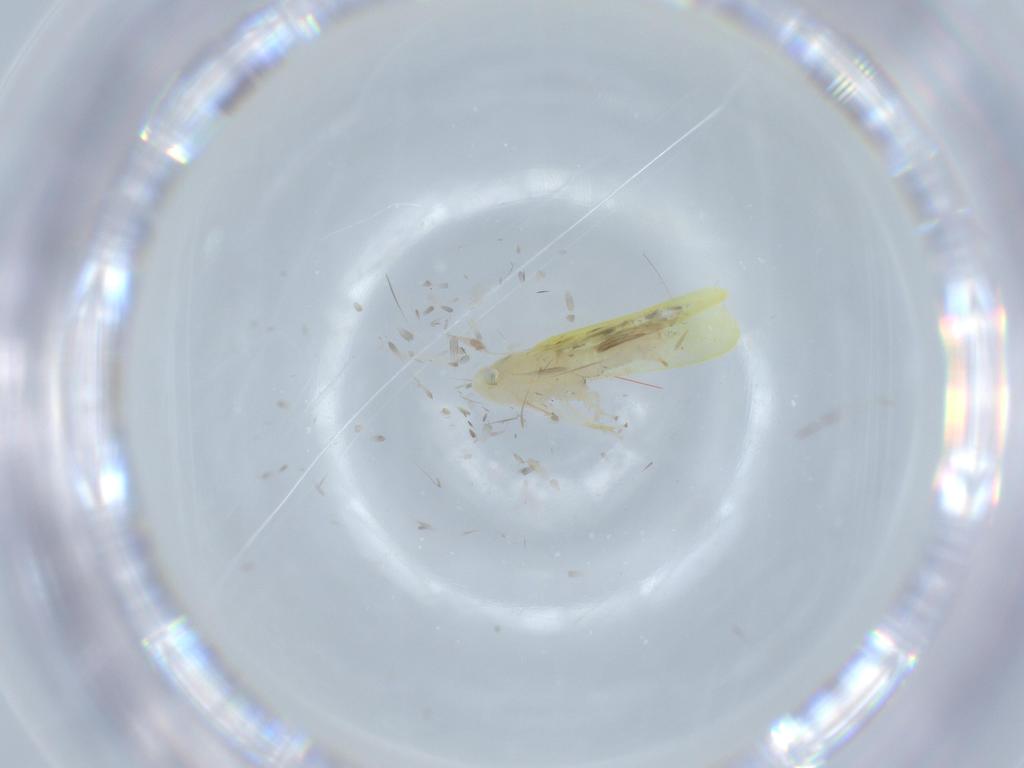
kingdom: Animalia
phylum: Arthropoda
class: Insecta
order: Hemiptera
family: Cicadellidae
